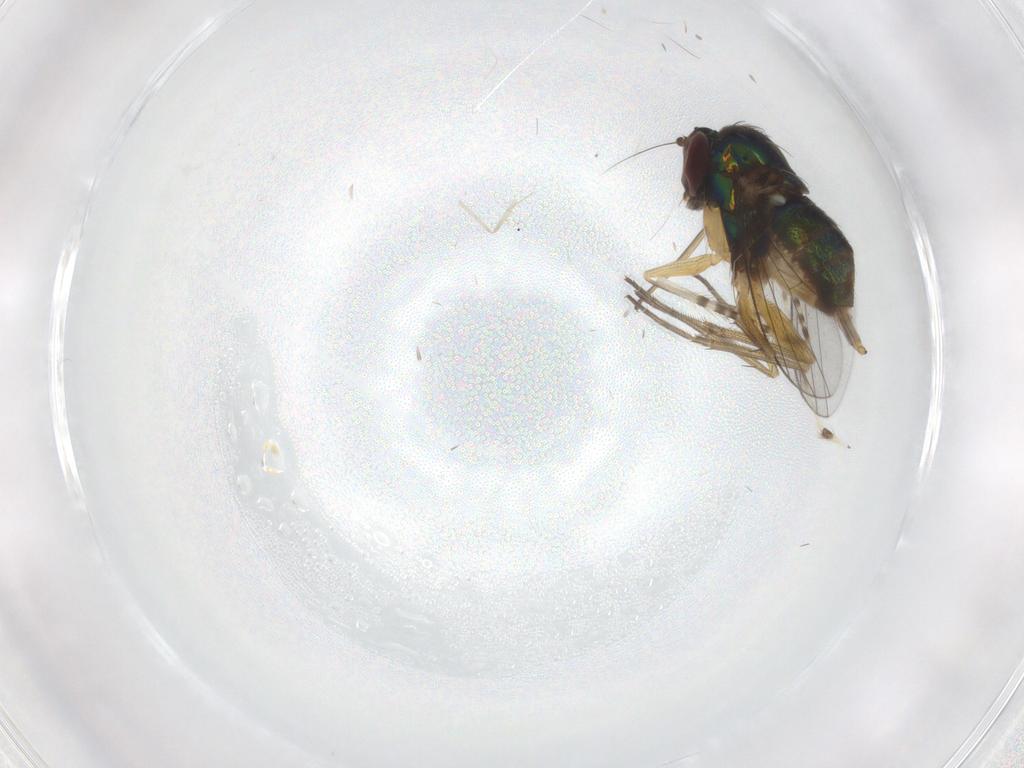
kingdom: Animalia
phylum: Arthropoda
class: Insecta
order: Diptera
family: Dolichopodidae
